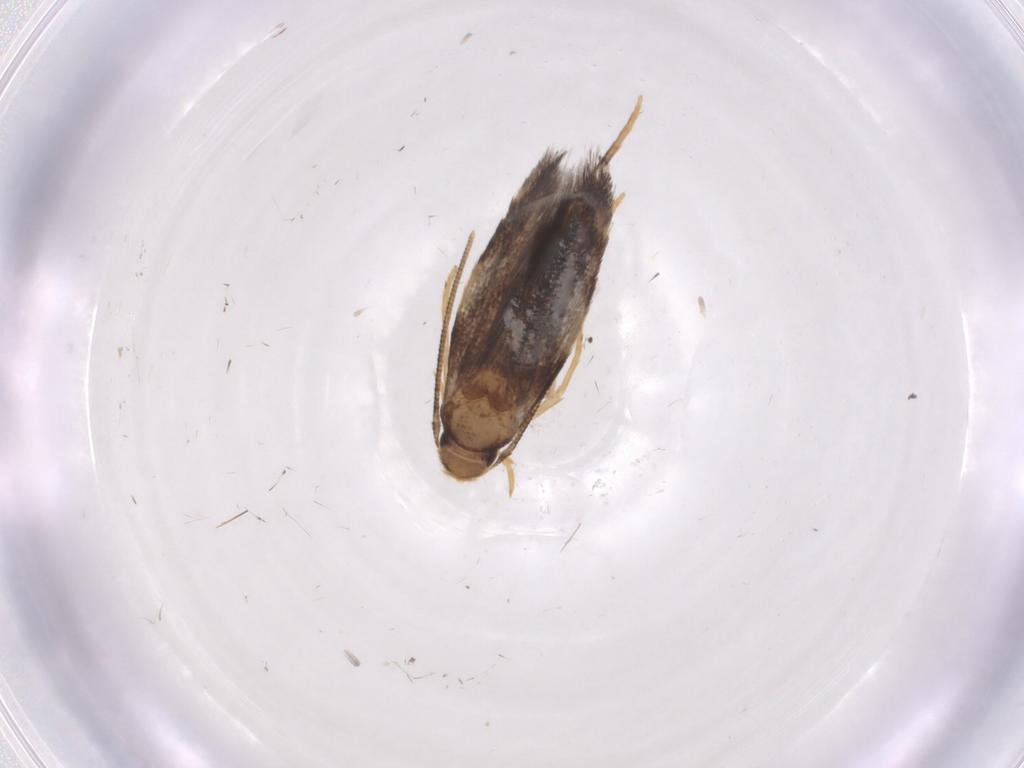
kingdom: Animalia
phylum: Arthropoda
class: Insecta
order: Lepidoptera
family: Gelechiidae
